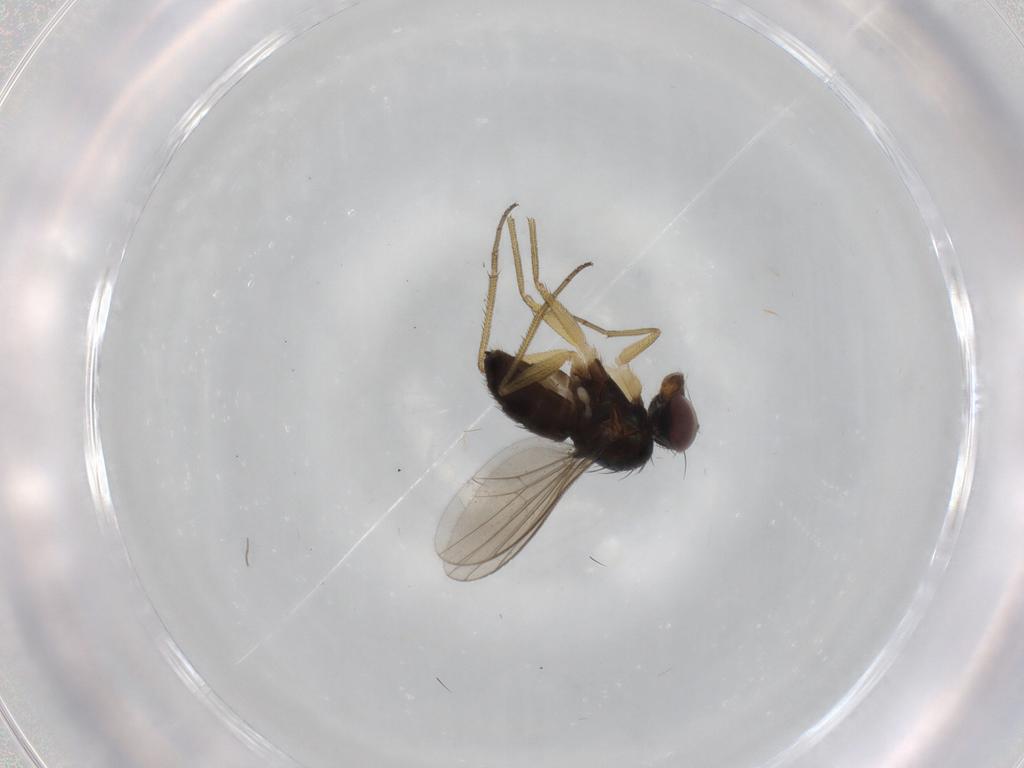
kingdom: Animalia
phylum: Arthropoda
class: Insecta
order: Diptera
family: Dolichopodidae
